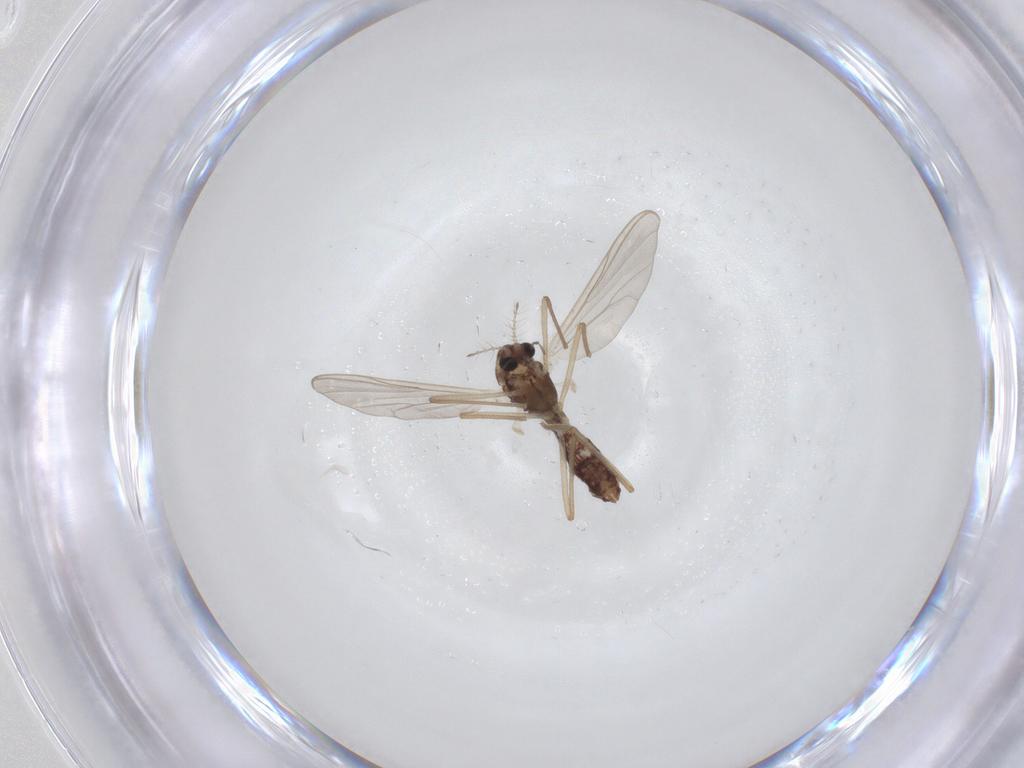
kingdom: Animalia
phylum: Arthropoda
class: Insecta
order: Diptera
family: Chironomidae
